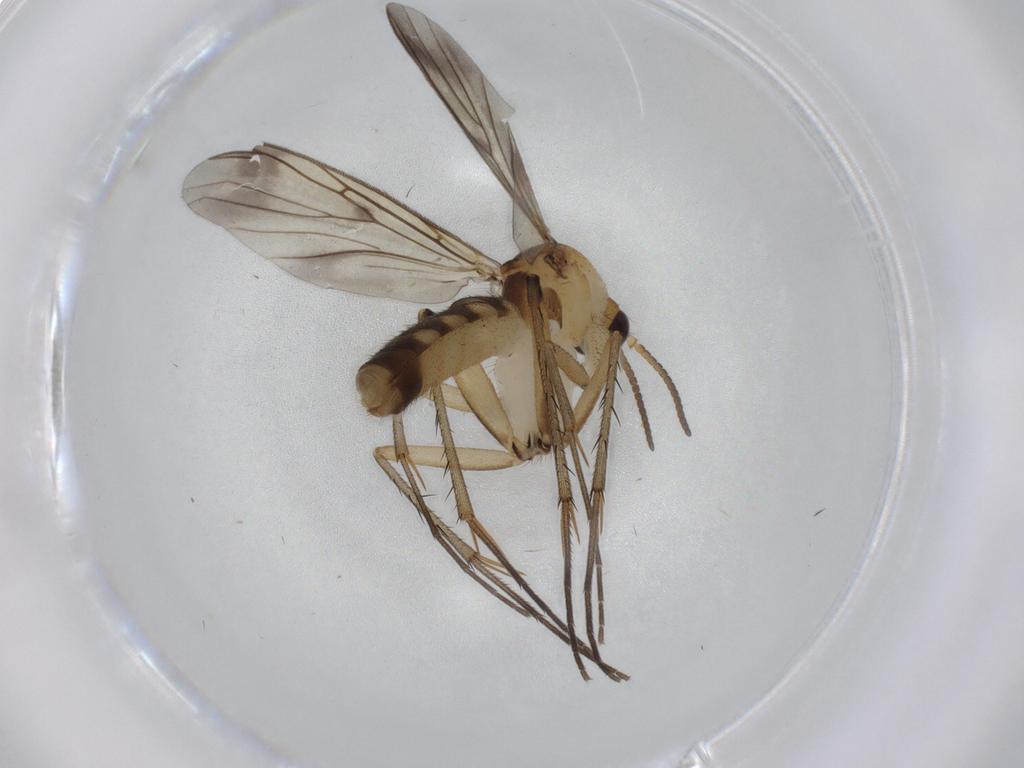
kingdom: Animalia
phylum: Arthropoda
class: Insecta
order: Diptera
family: Mycetophilidae
